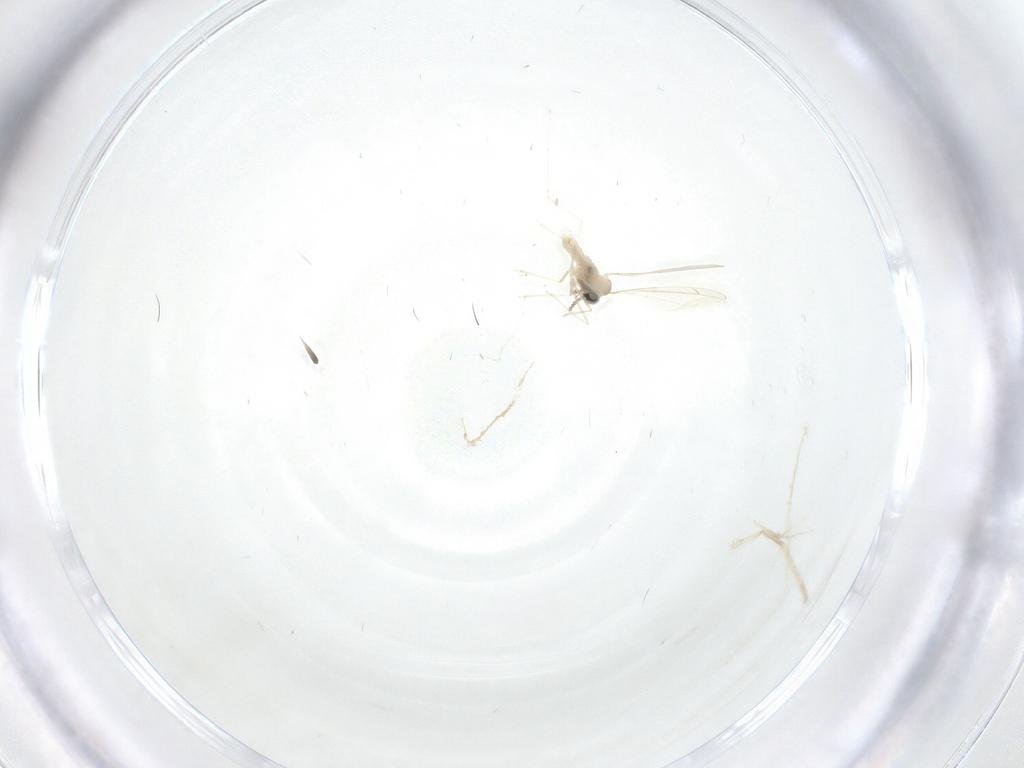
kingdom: Animalia
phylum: Arthropoda
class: Insecta
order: Diptera
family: Cecidomyiidae
